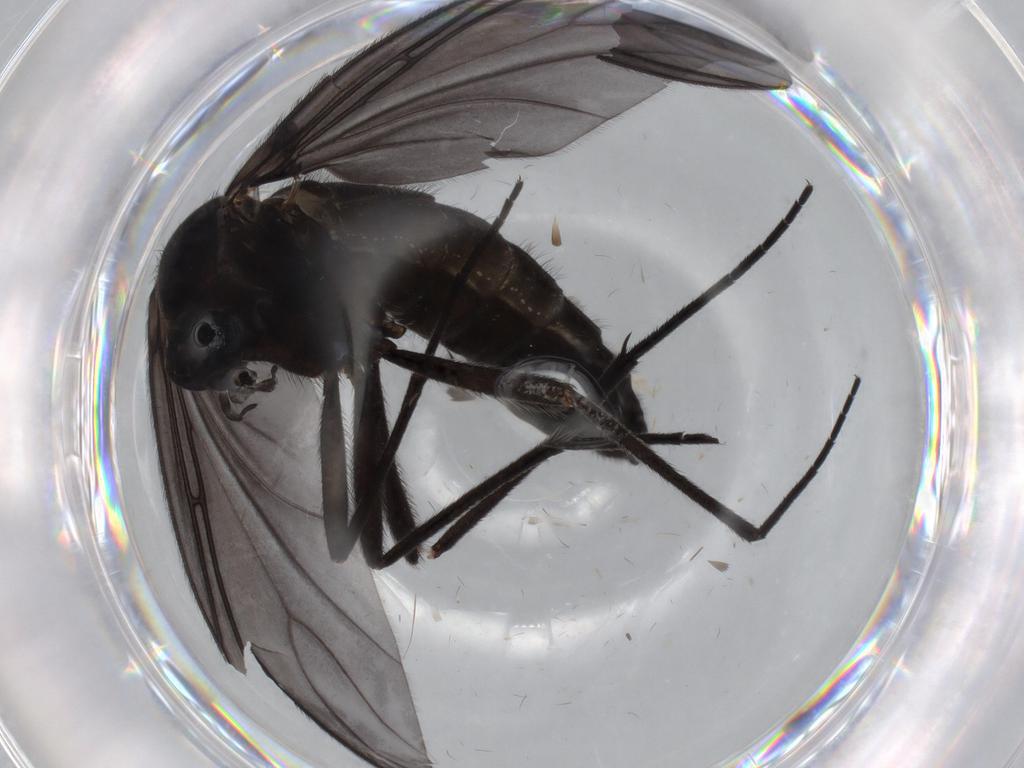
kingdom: Animalia
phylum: Arthropoda
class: Insecta
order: Diptera
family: Sciaridae
